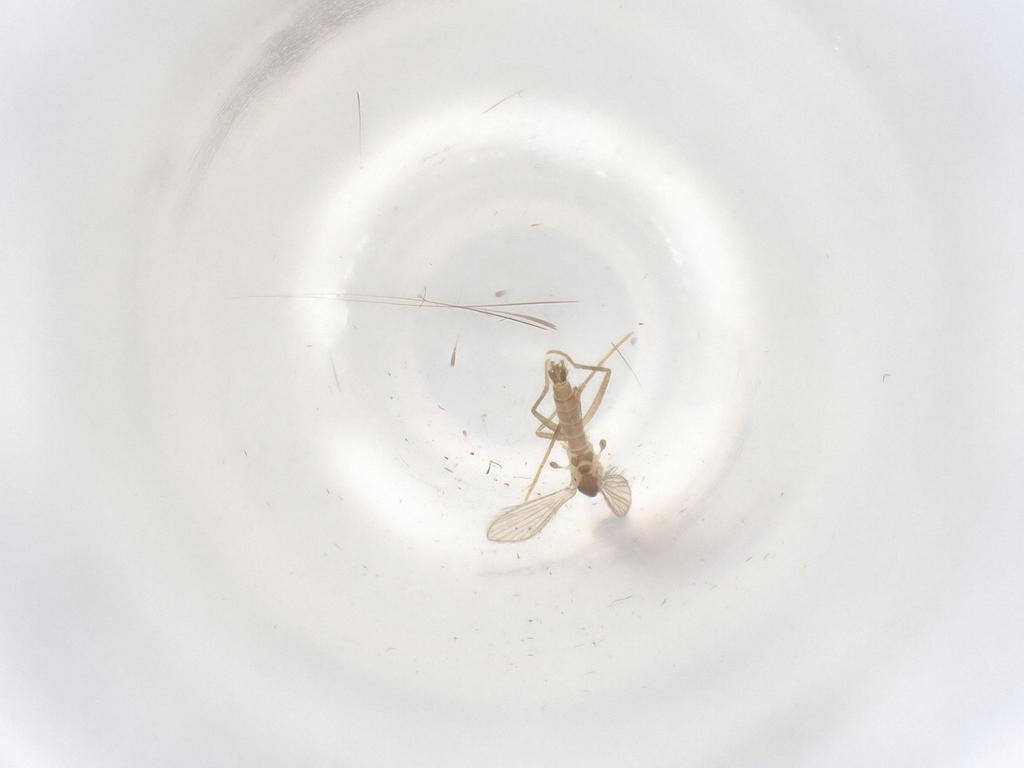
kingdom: Animalia
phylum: Arthropoda
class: Insecta
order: Diptera
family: Psychodidae
